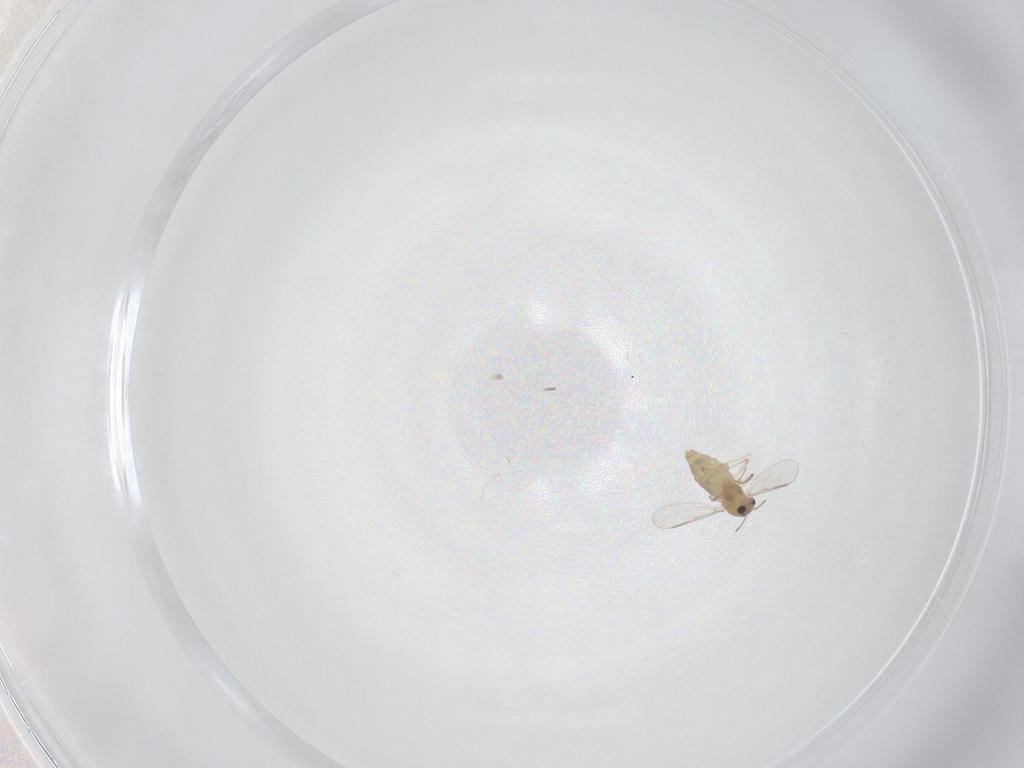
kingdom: Animalia
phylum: Arthropoda
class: Insecta
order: Diptera
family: Chironomidae
